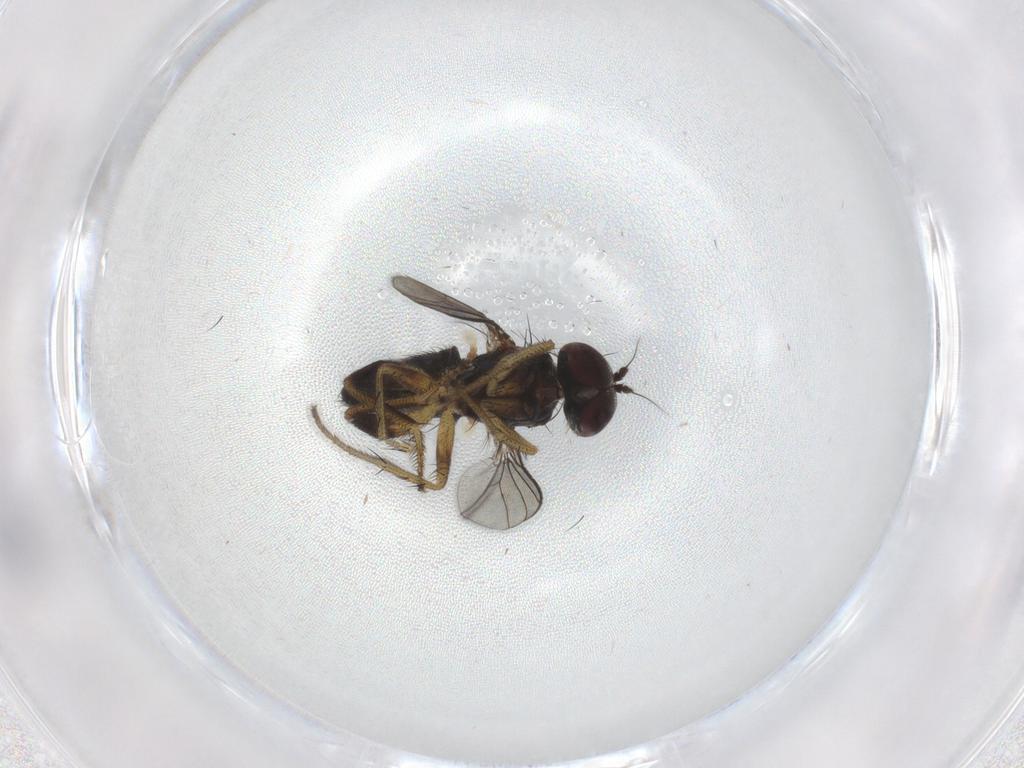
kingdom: Animalia
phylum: Arthropoda
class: Insecta
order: Diptera
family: Dolichopodidae
